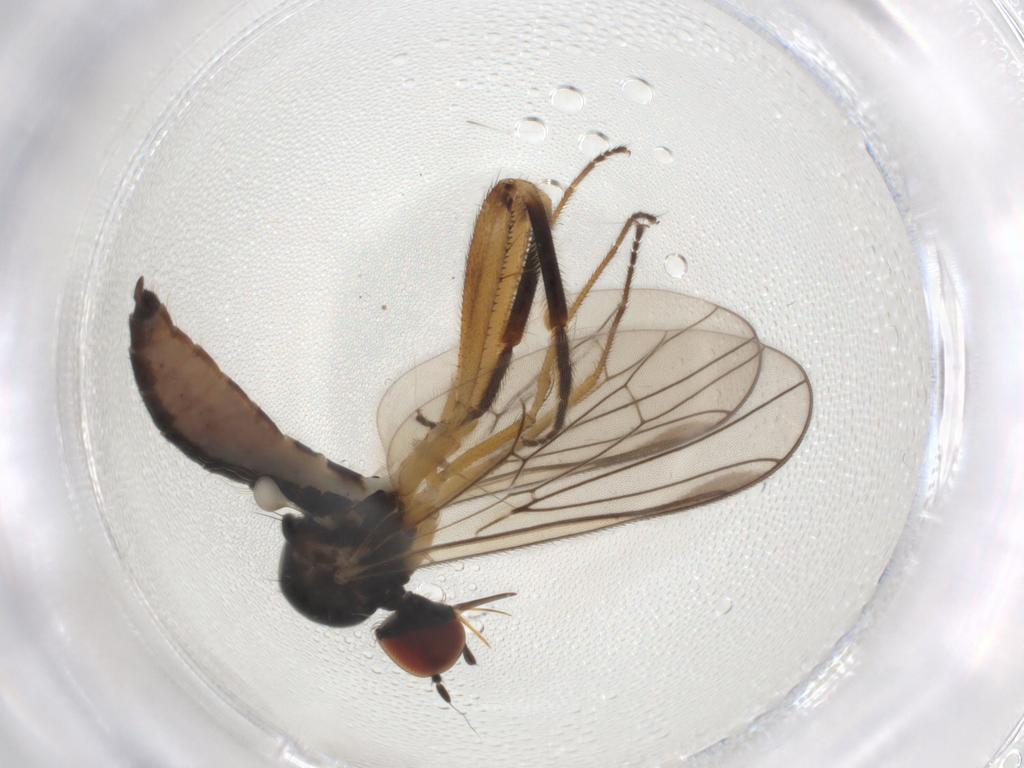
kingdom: Animalia
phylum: Arthropoda
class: Insecta
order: Diptera
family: Hybotidae
